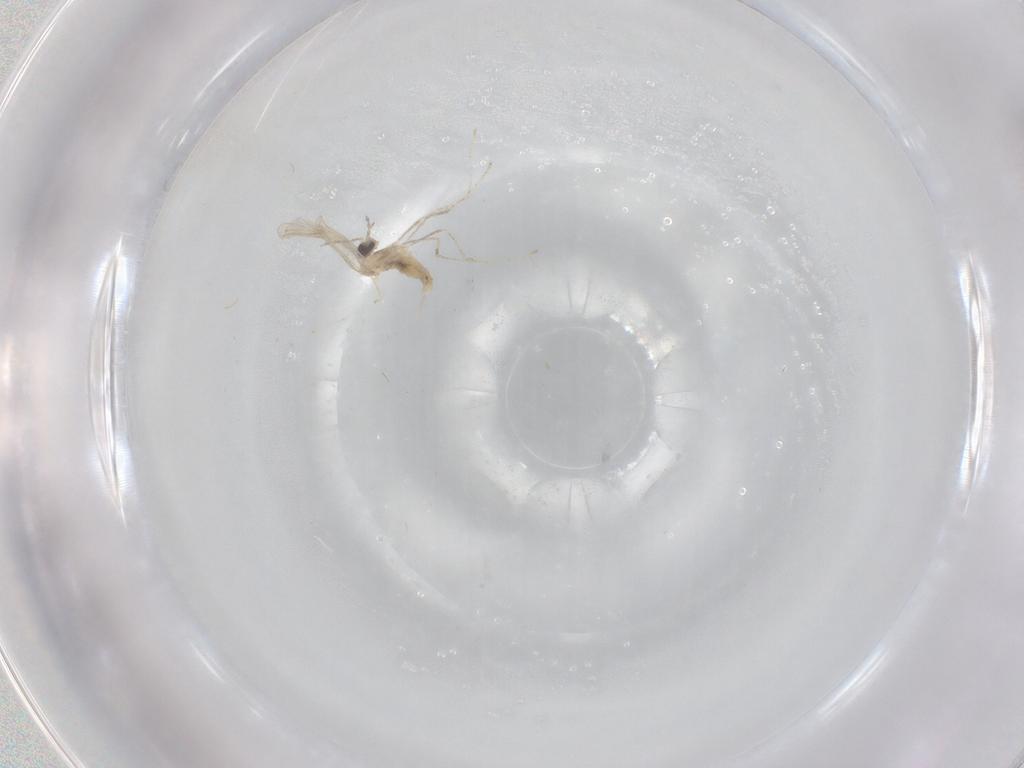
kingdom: Animalia
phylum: Arthropoda
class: Insecta
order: Diptera
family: Cecidomyiidae
